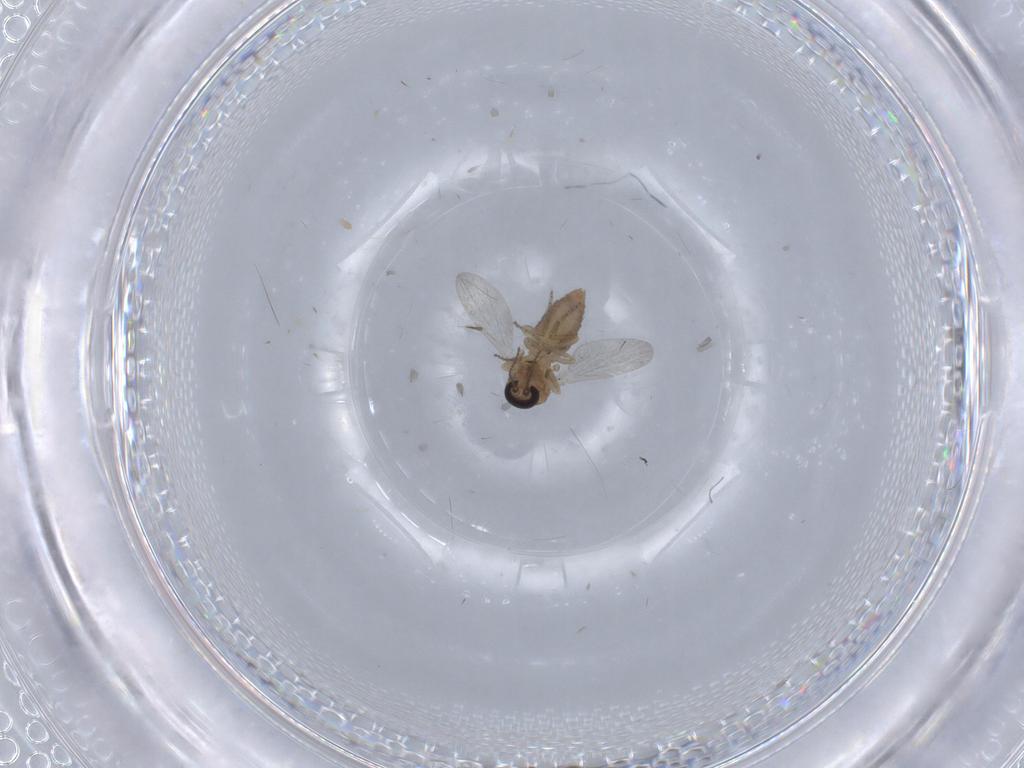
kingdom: Animalia
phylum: Arthropoda
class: Insecta
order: Diptera
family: Ceratopogonidae
